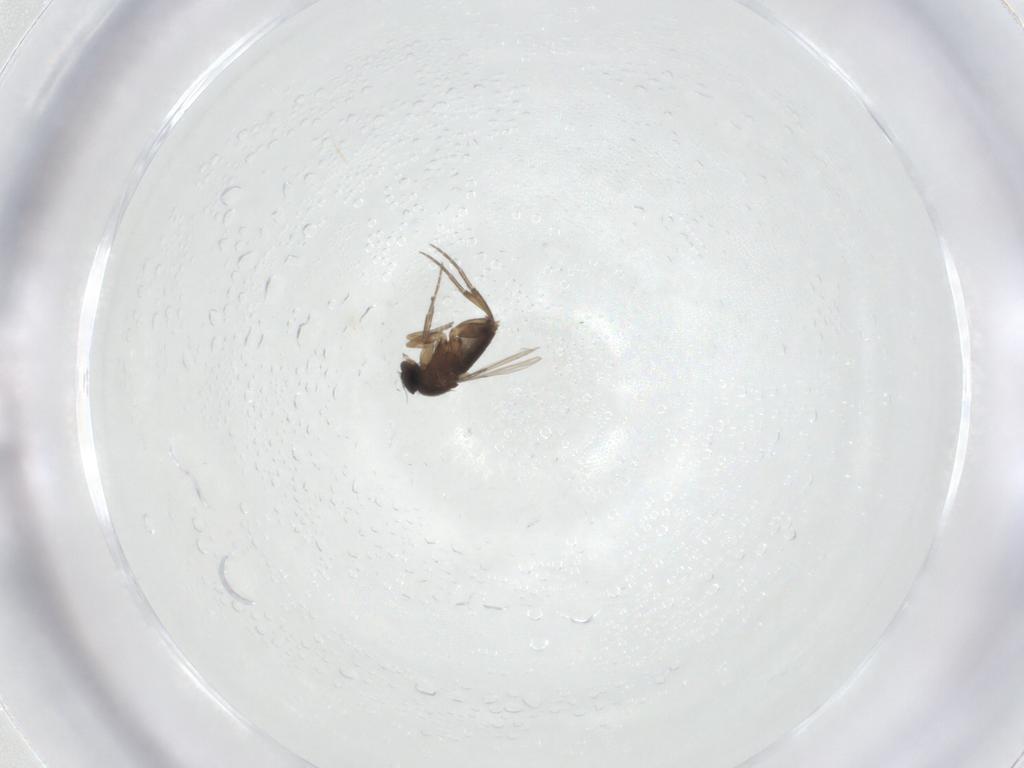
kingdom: Animalia
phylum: Arthropoda
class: Insecta
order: Diptera
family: Phoridae
